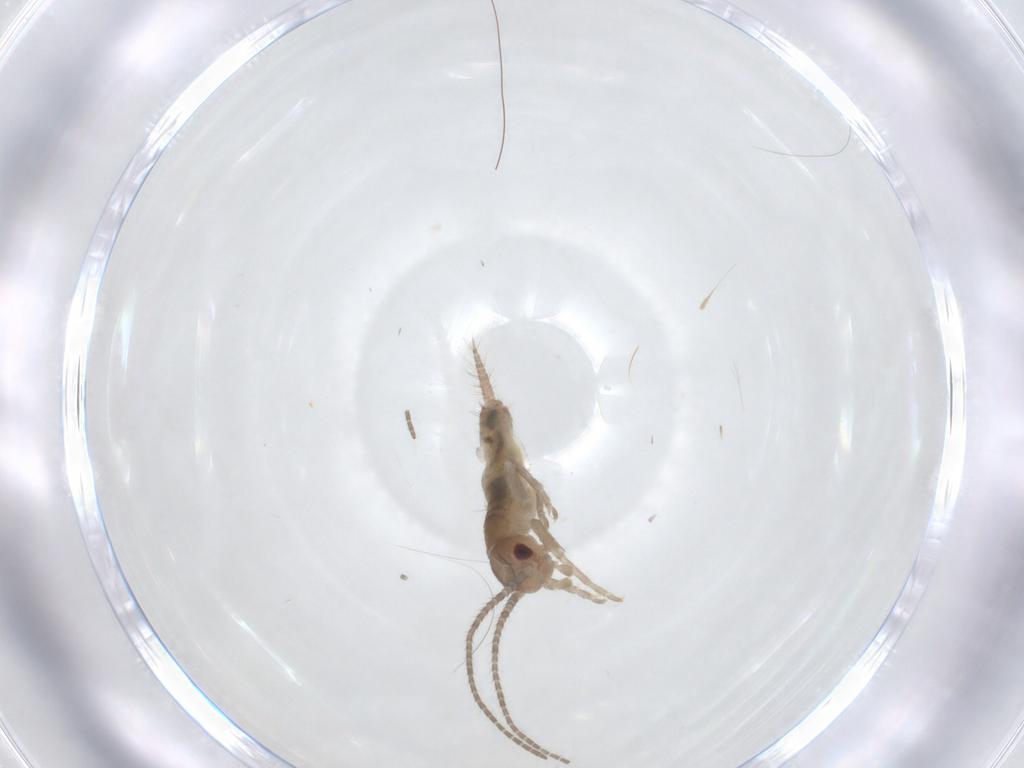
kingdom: Animalia
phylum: Arthropoda
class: Insecta
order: Orthoptera
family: Gryllidae
